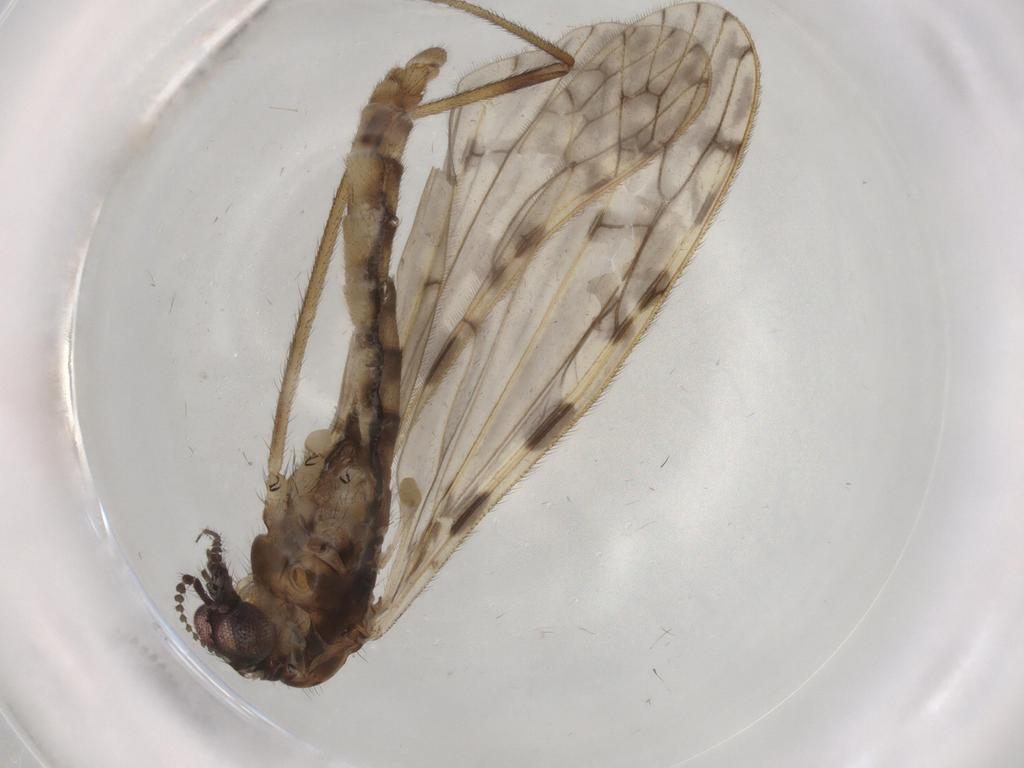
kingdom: Animalia
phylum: Arthropoda
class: Insecta
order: Diptera
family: Limoniidae
